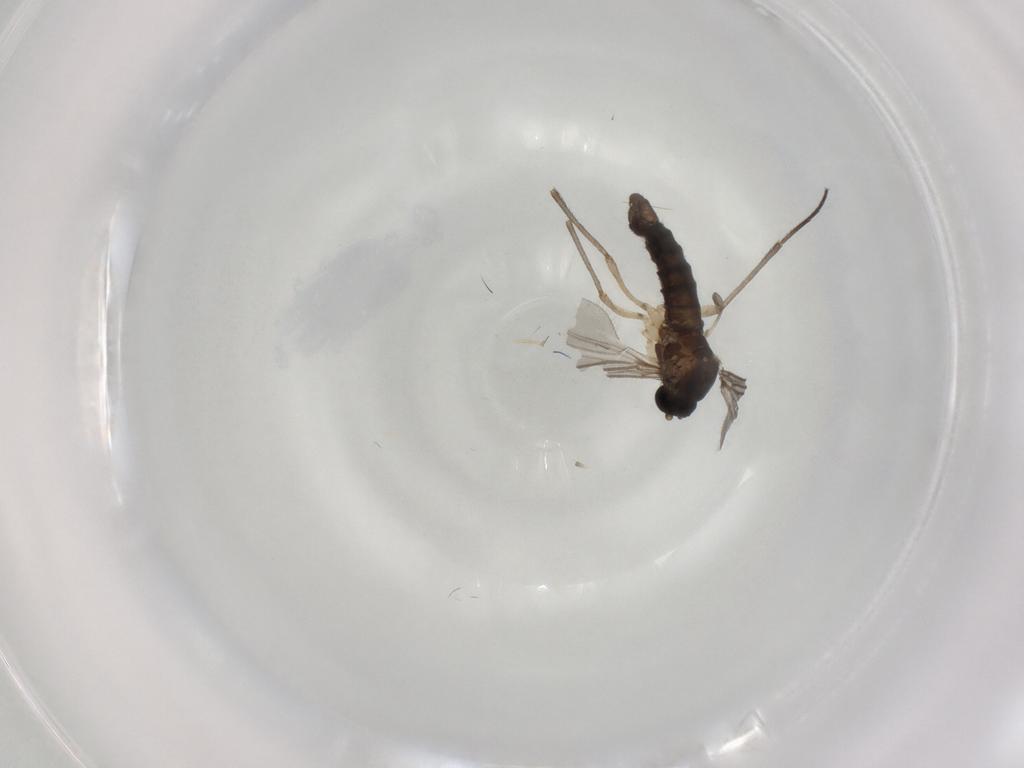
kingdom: Animalia
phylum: Arthropoda
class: Insecta
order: Diptera
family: Sciaridae
